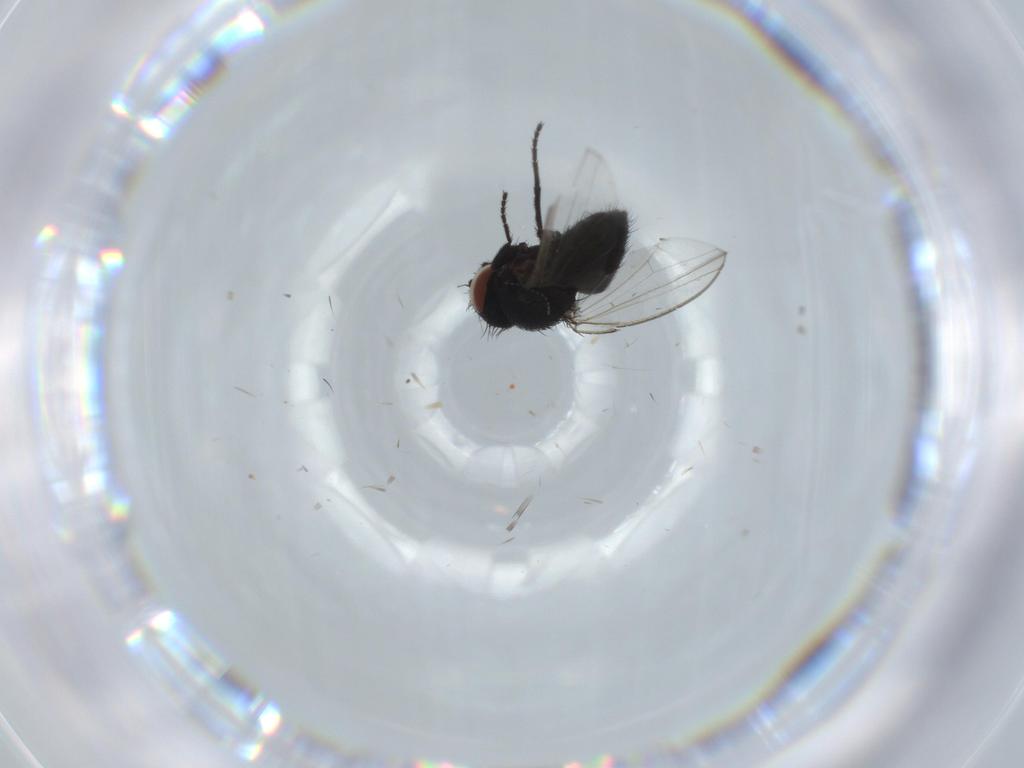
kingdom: Animalia
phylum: Arthropoda
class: Insecta
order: Diptera
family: Milichiidae
